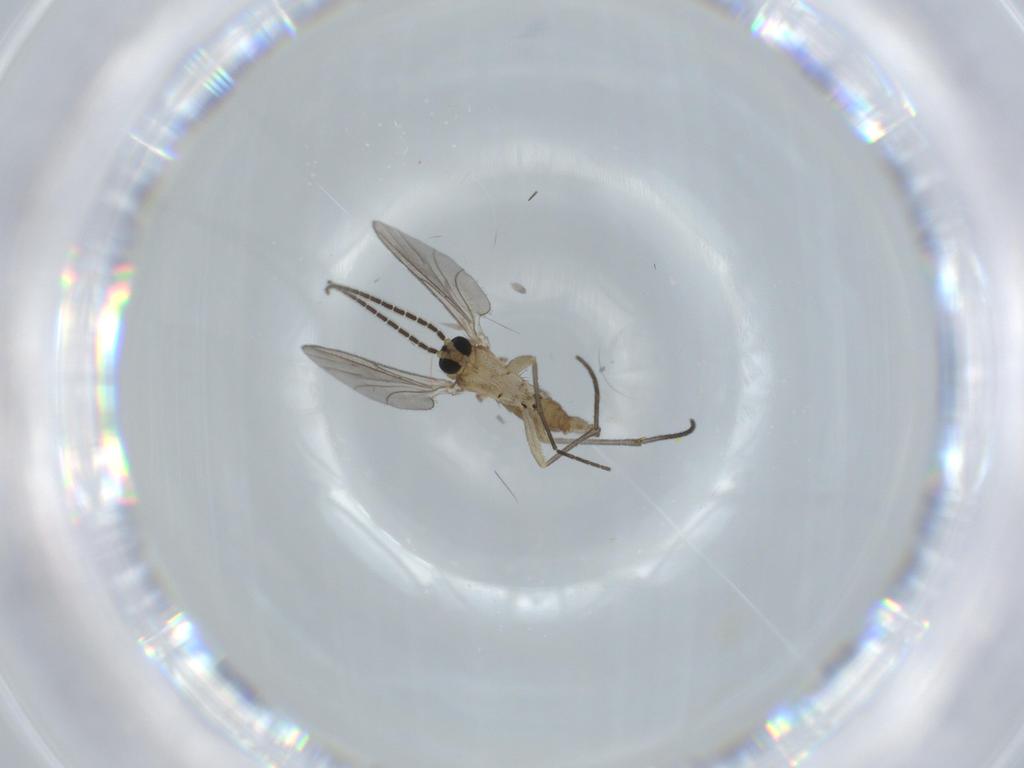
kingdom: Animalia
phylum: Arthropoda
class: Insecta
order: Diptera
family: Sciaridae
